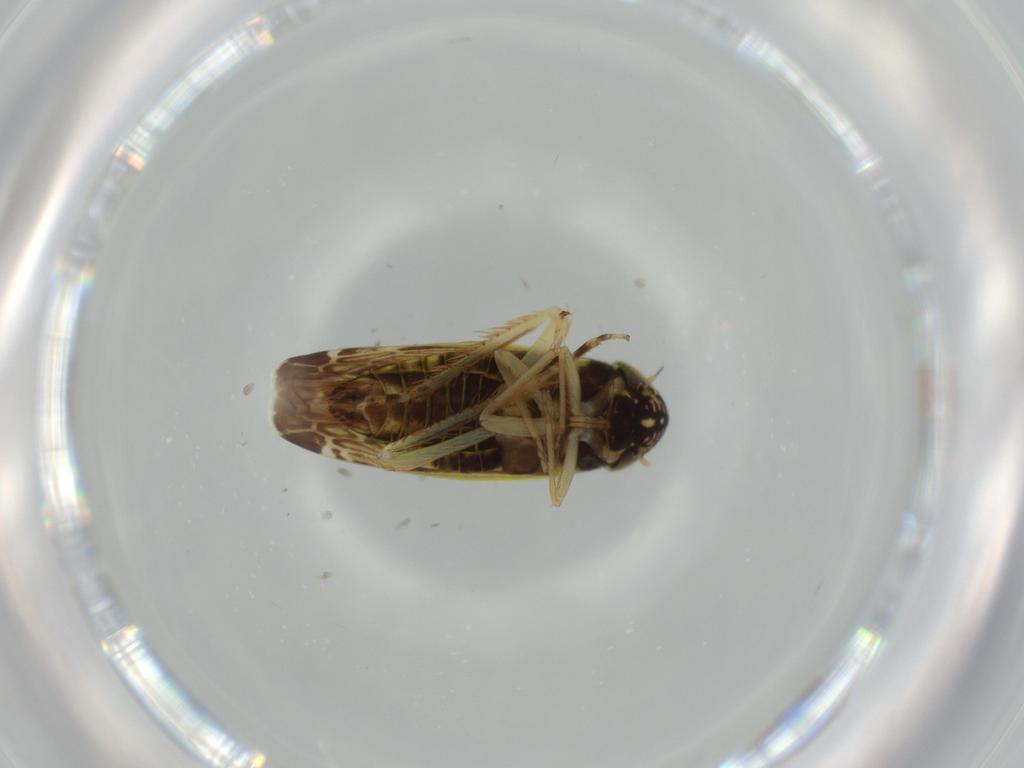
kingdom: Animalia
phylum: Arthropoda
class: Insecta
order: Hemiptera
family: Cicadellidae
